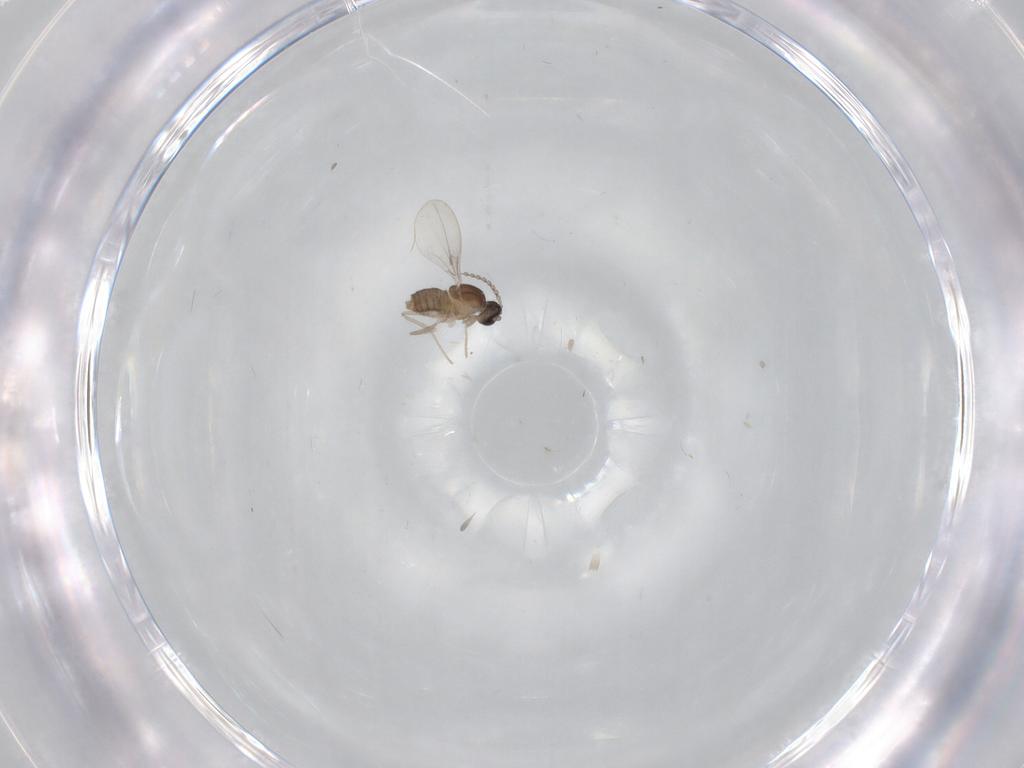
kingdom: Animalia
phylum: Arthropoda
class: Insecta
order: Diptera
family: Cecidomyiidae
